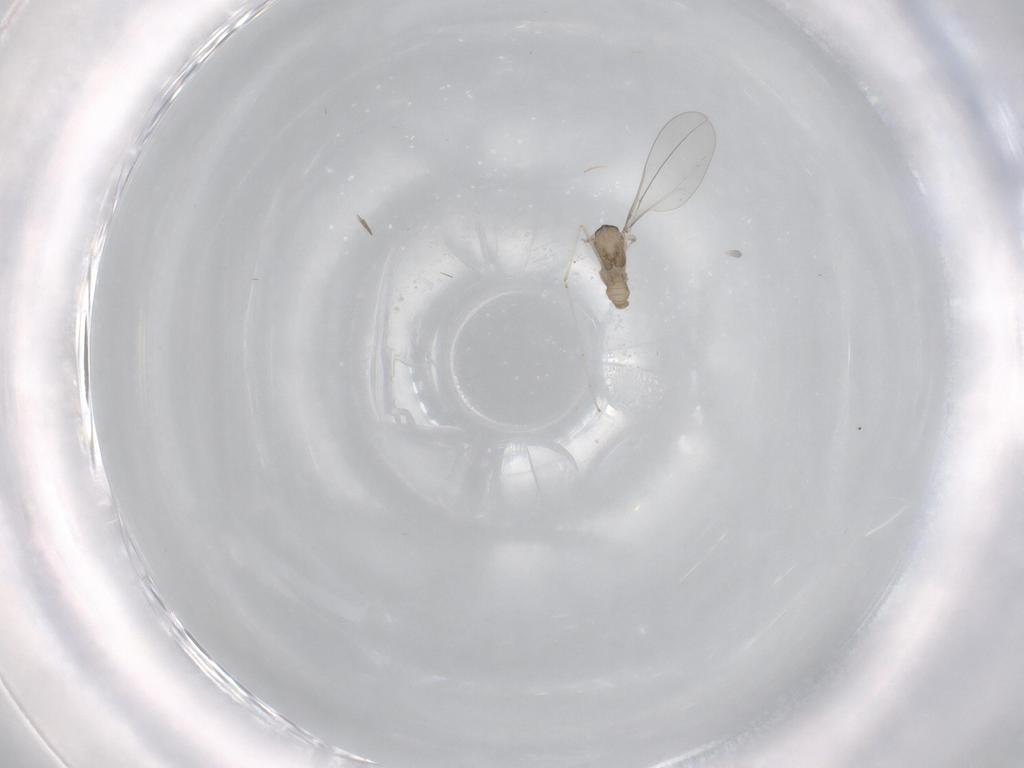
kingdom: Animalia
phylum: Arthropoda
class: Insecta
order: Diptera
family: Cecidomyiidae
